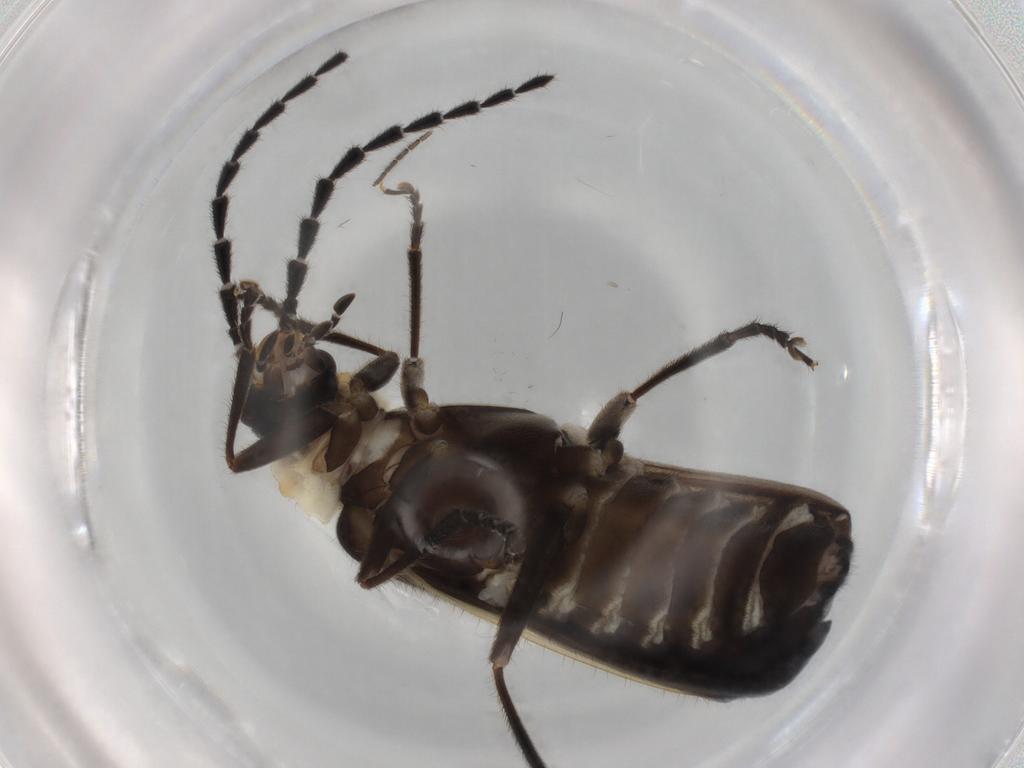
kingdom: Animalia
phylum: Arthropoda
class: Insecta
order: Coleoptera
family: Cantharidae
